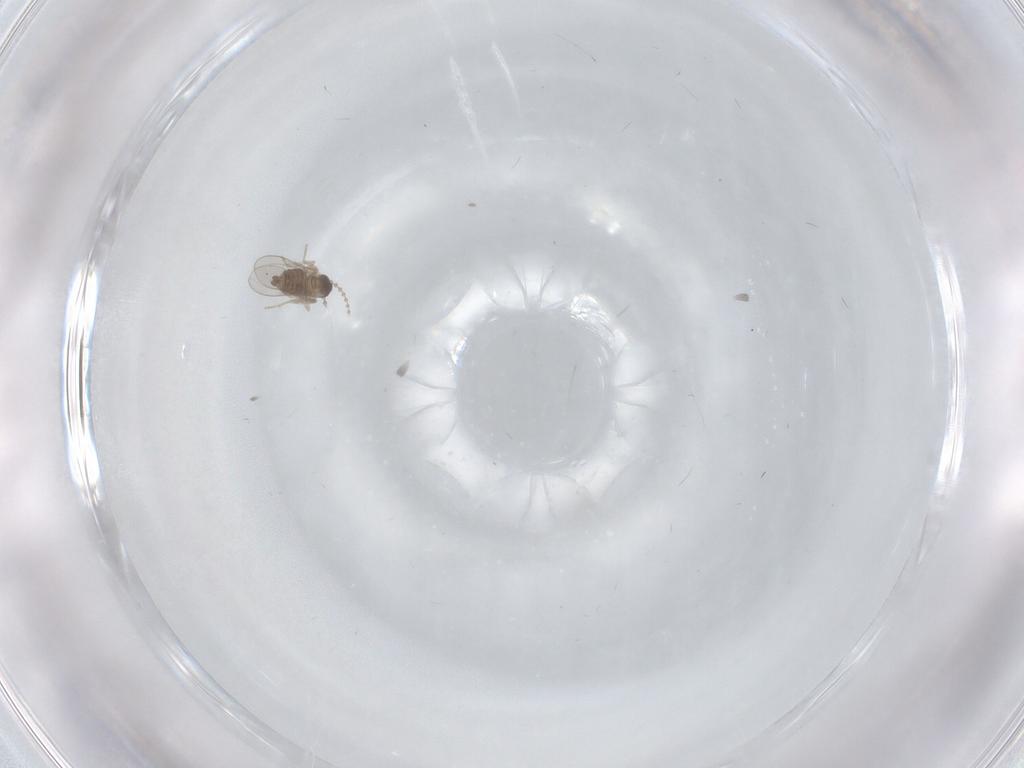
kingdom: Animalia
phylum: Arthropoda
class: Insecta
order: Diptera
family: Cecidomyiidae
